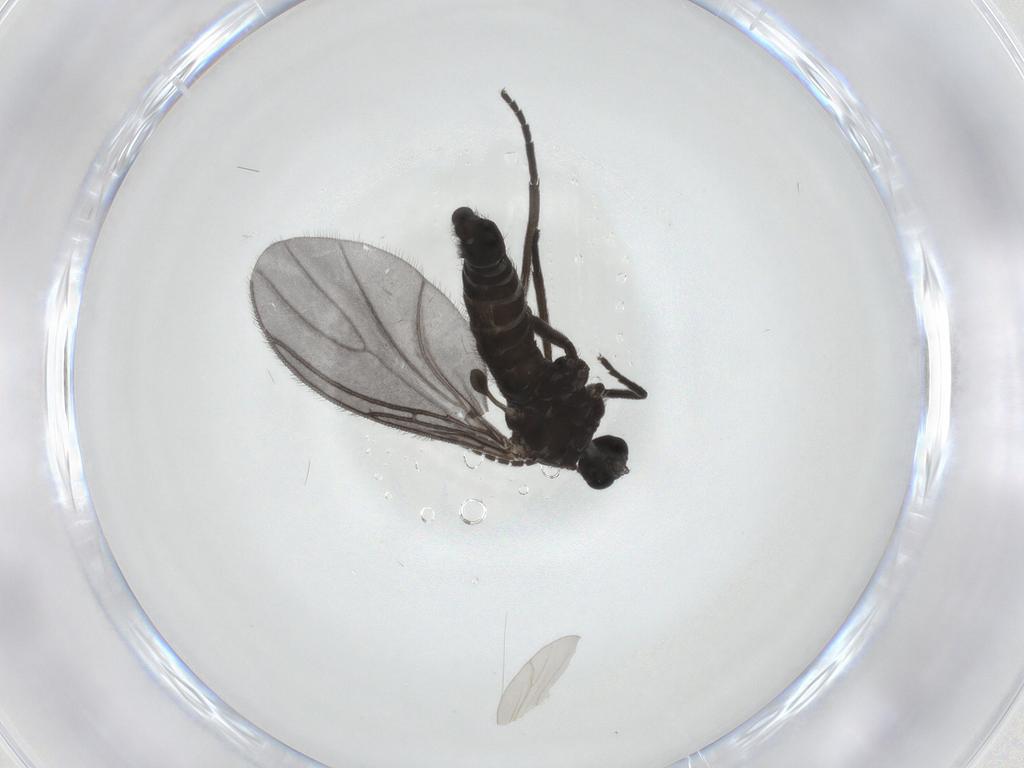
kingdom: Animalia
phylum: Arthropoda
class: Insecta
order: Diptera
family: Sciaridae
